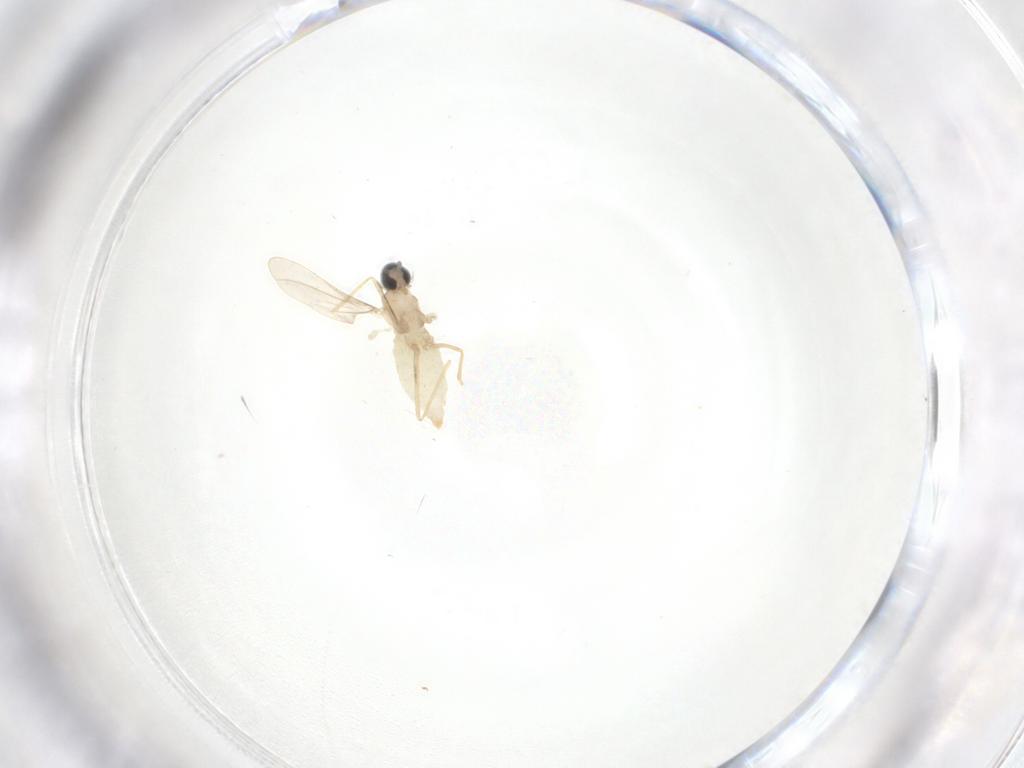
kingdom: Animalia
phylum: Arthropoda
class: Insecta
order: Diptera
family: Cecidomyiidae
